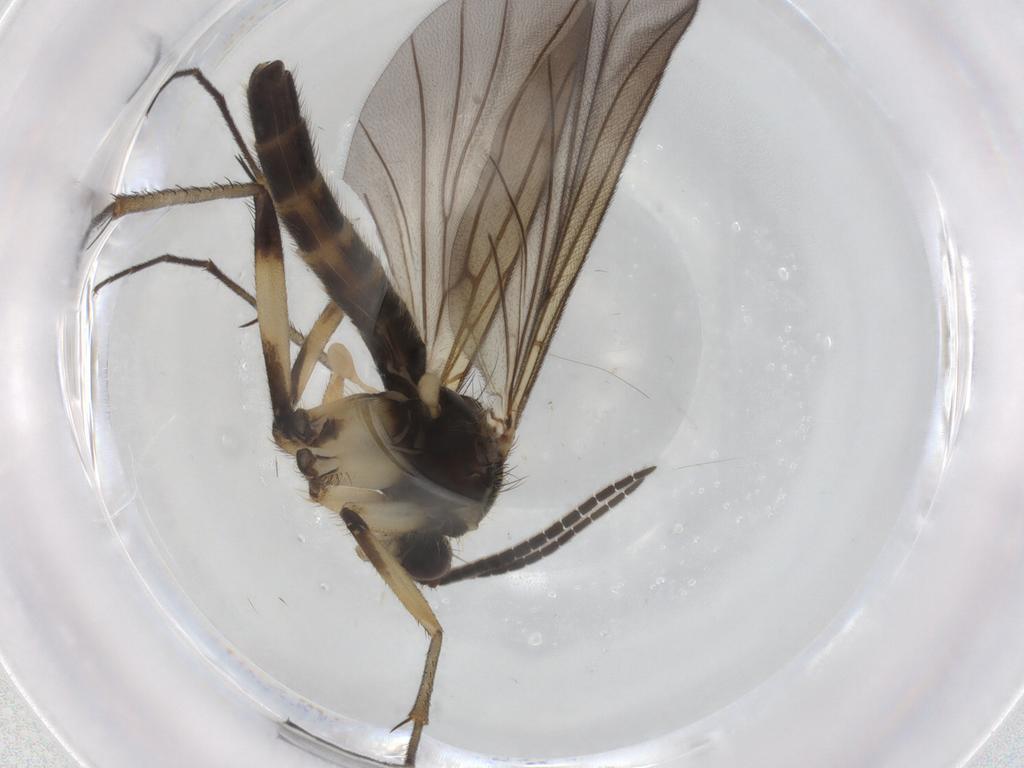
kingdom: Animalia
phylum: Arthropoda
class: Insecta
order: Diptera
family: Mycetophilidae
